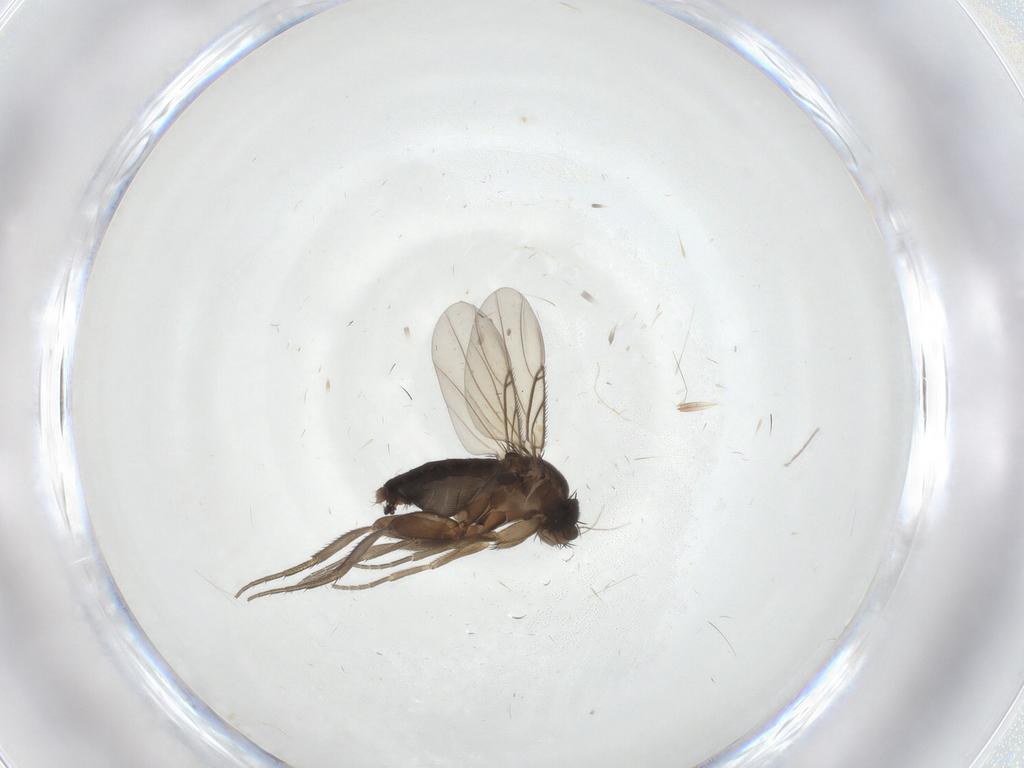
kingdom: Animalia
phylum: Arthropoda
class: Insecta
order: Diptera
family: Phoridae
